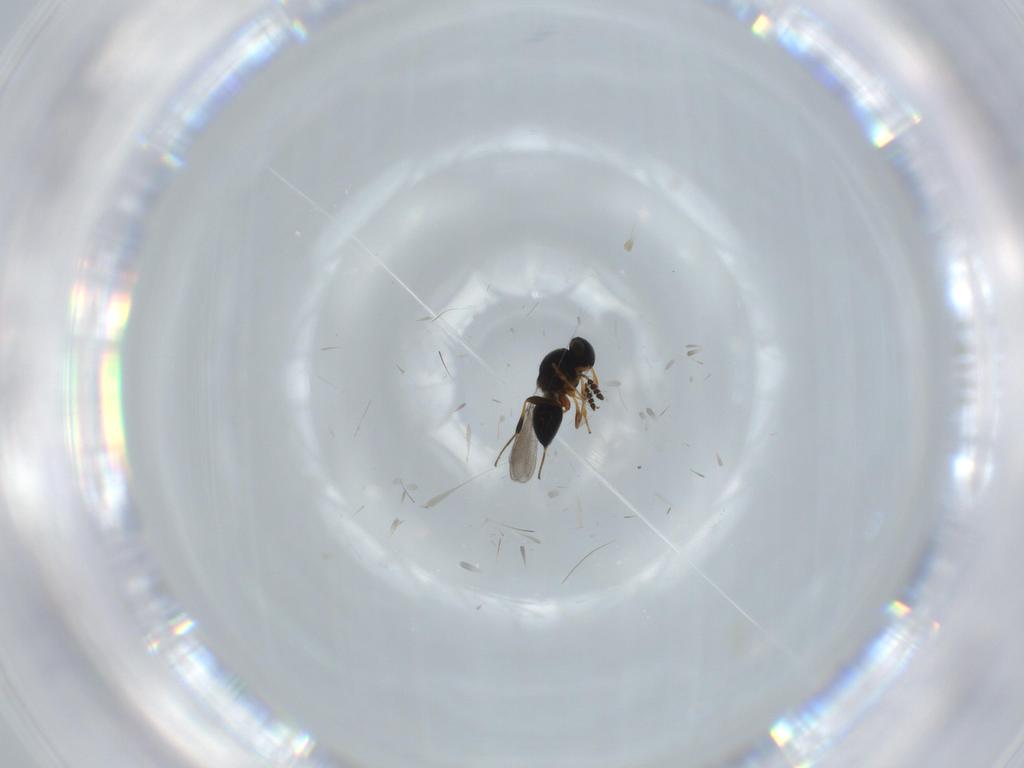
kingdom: Animalia
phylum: Arthropoda
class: Insecta
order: Hymenoptera
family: Platygastridae
